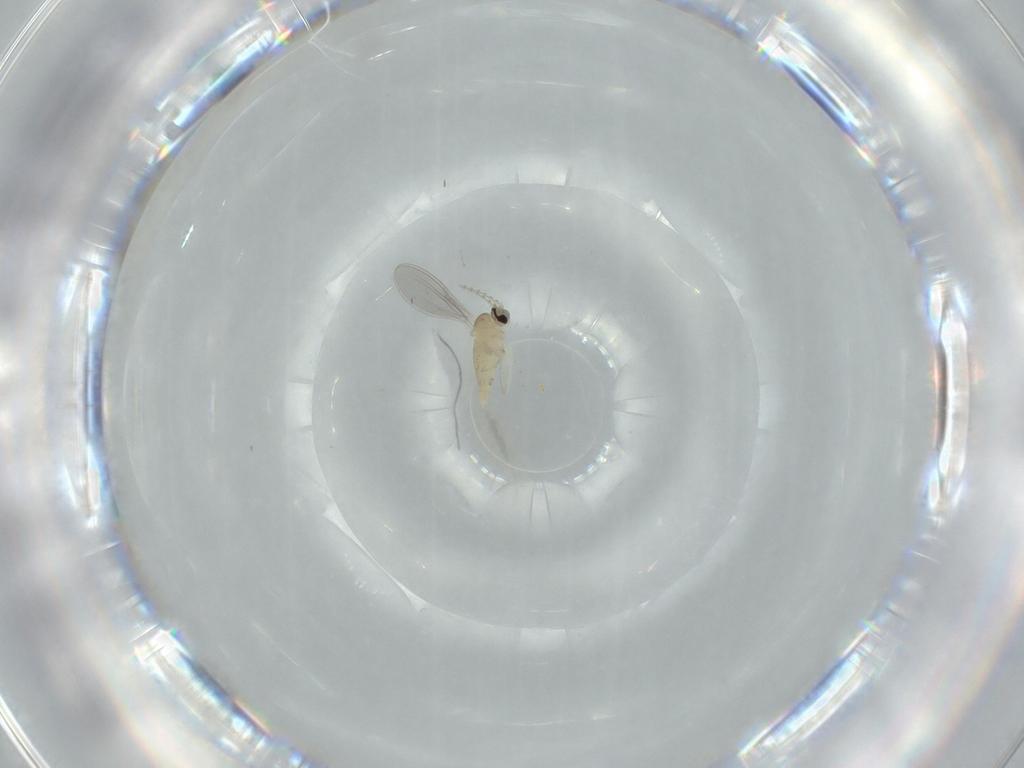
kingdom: Animalia
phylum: Arthropoda
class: Insecta
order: Diptera
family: Cecidomyiidae
